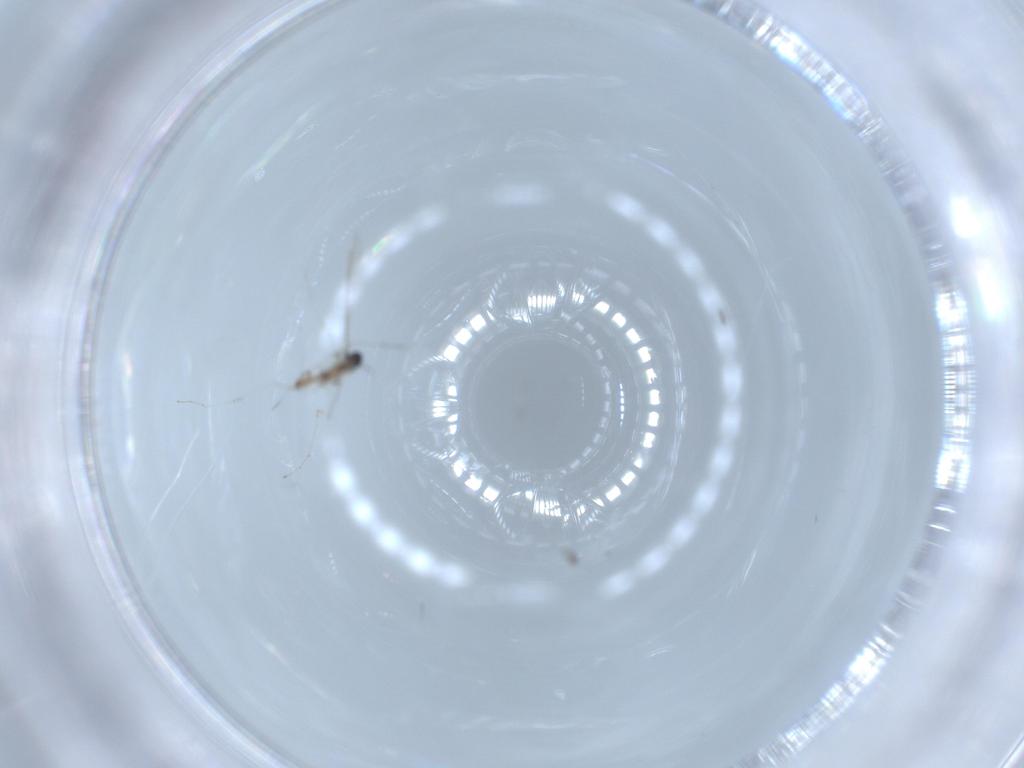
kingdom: Animalia
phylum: Arthropoda
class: Insecta
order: Diptera
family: Cecidomyiidae
